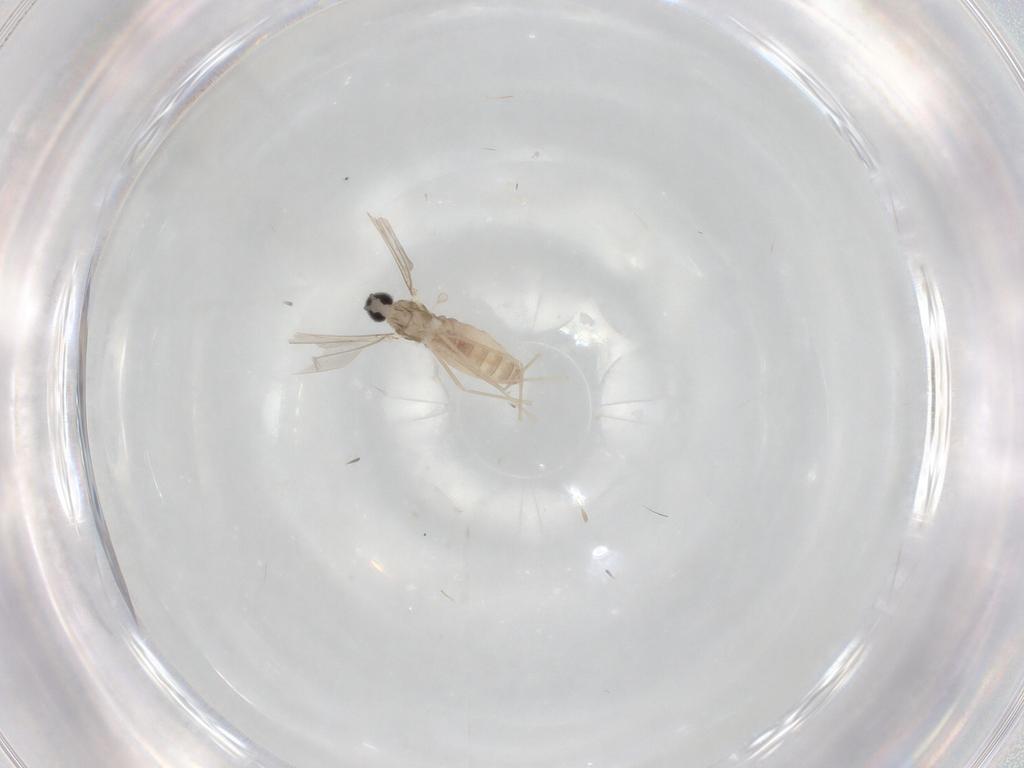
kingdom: Animalia
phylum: Arthropoda
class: Insecta
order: Diptera
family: Cecidomyiidae
